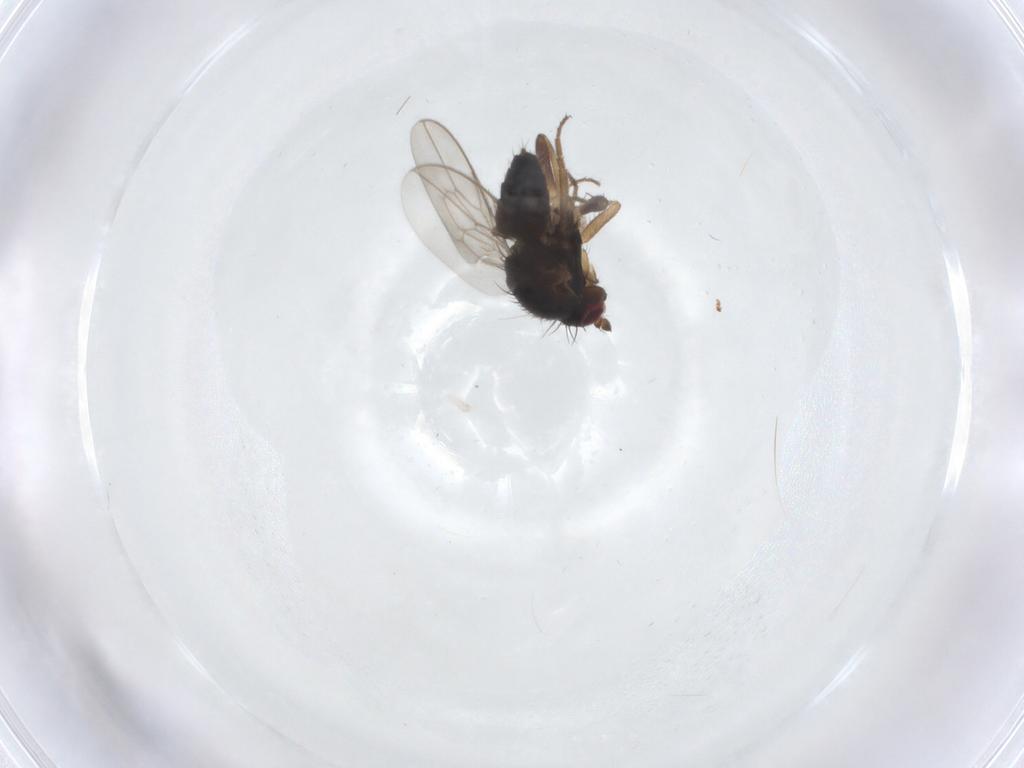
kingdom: Animalia
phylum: Arthropoda
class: Insecta
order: Diptera
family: Sphaeroceridae
